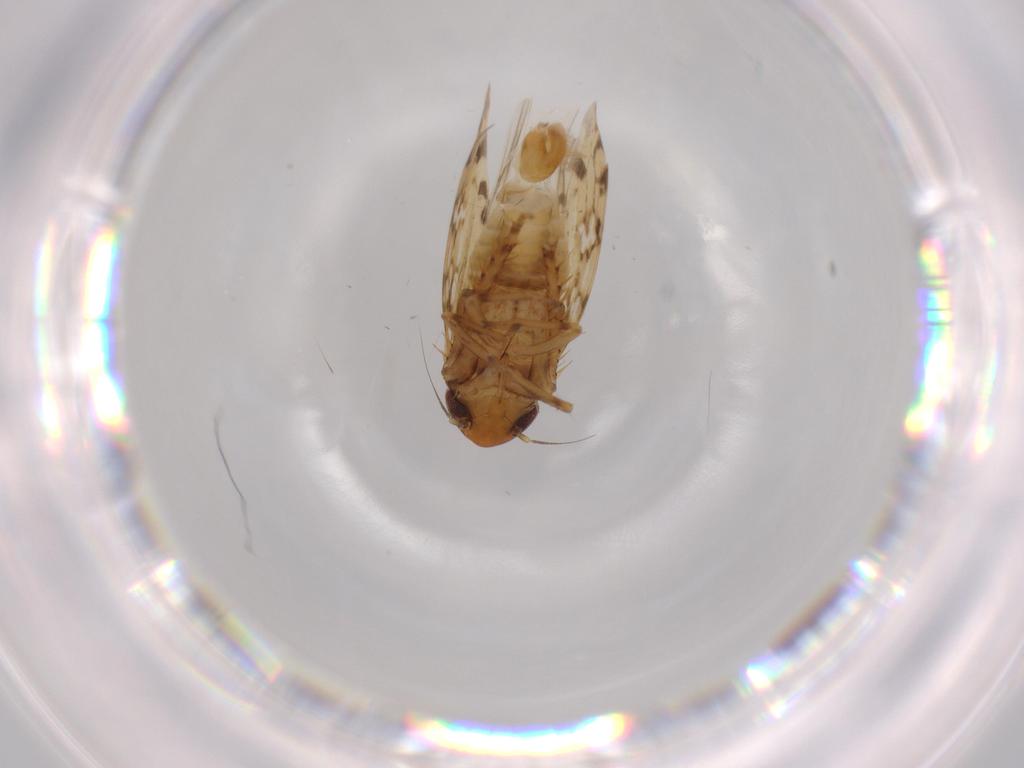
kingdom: Animalia
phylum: Arthropoda
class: Insecta
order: Hemiptera
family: Cicadellidae
